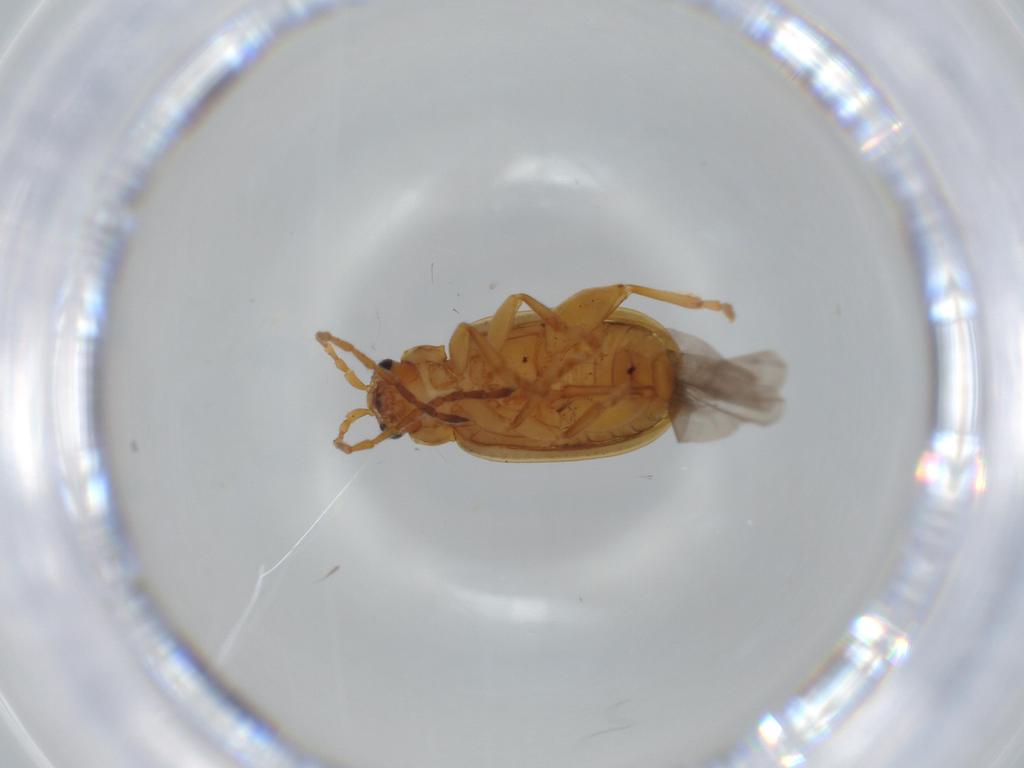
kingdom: Animalia
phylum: Arthropoda
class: Insecta
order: Coleoptera
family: Chrysomelidae
